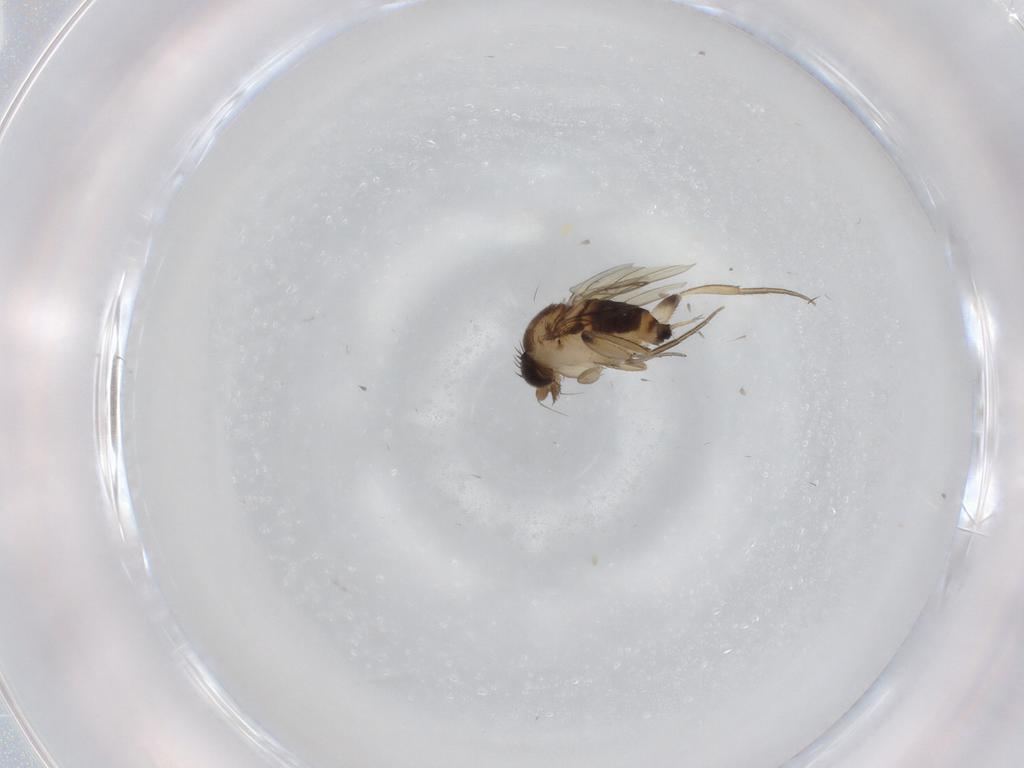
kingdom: Animalia
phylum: Arthropoda
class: Insecta
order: Diptera
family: Phoridae
